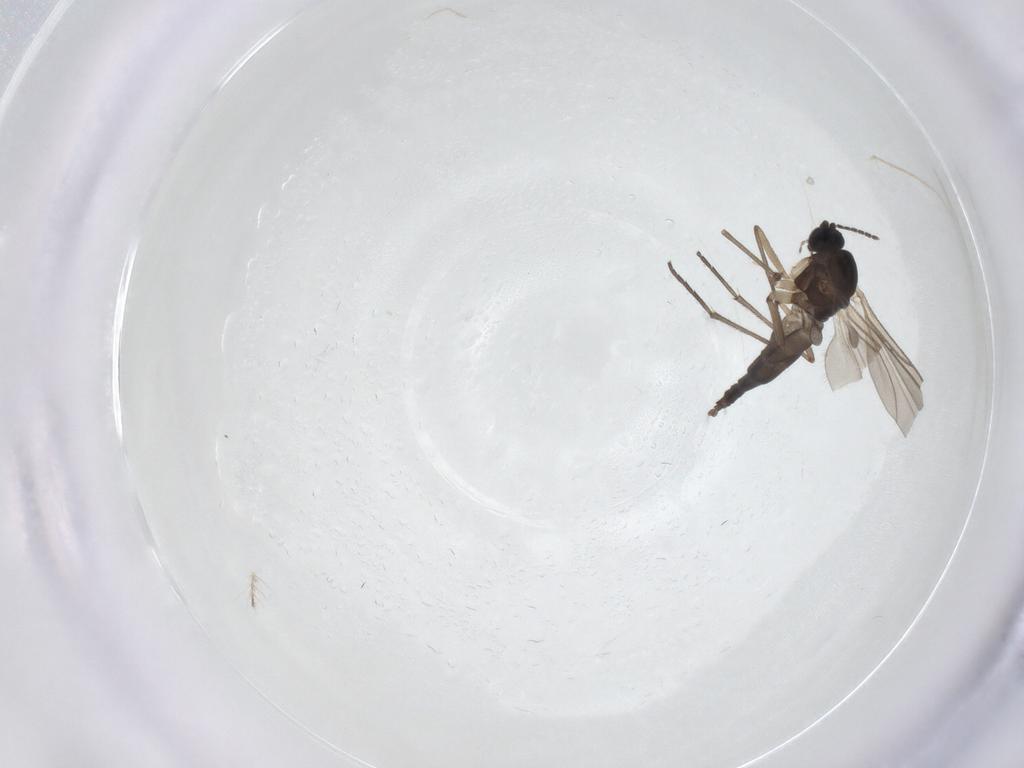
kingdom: Animalia
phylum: Arthropoda
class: Insecta
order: Diptera
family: Chironomidae
